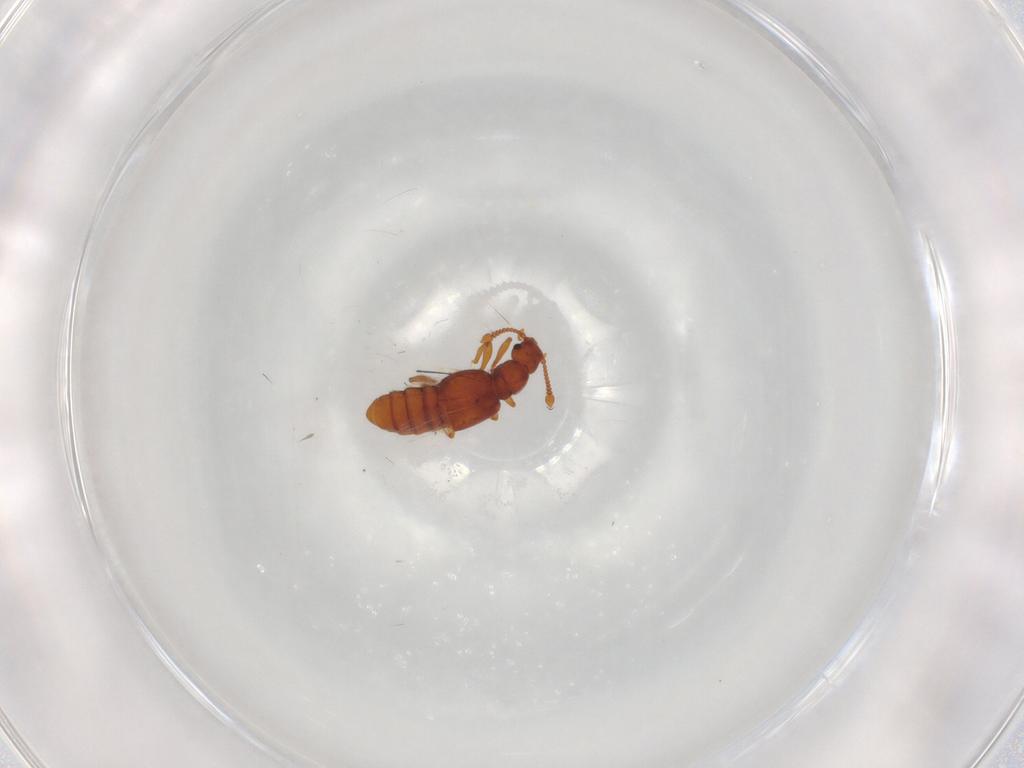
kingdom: Animalia
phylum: Arthropoda
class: Insecta
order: Coleoptera
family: Staphylinidae
